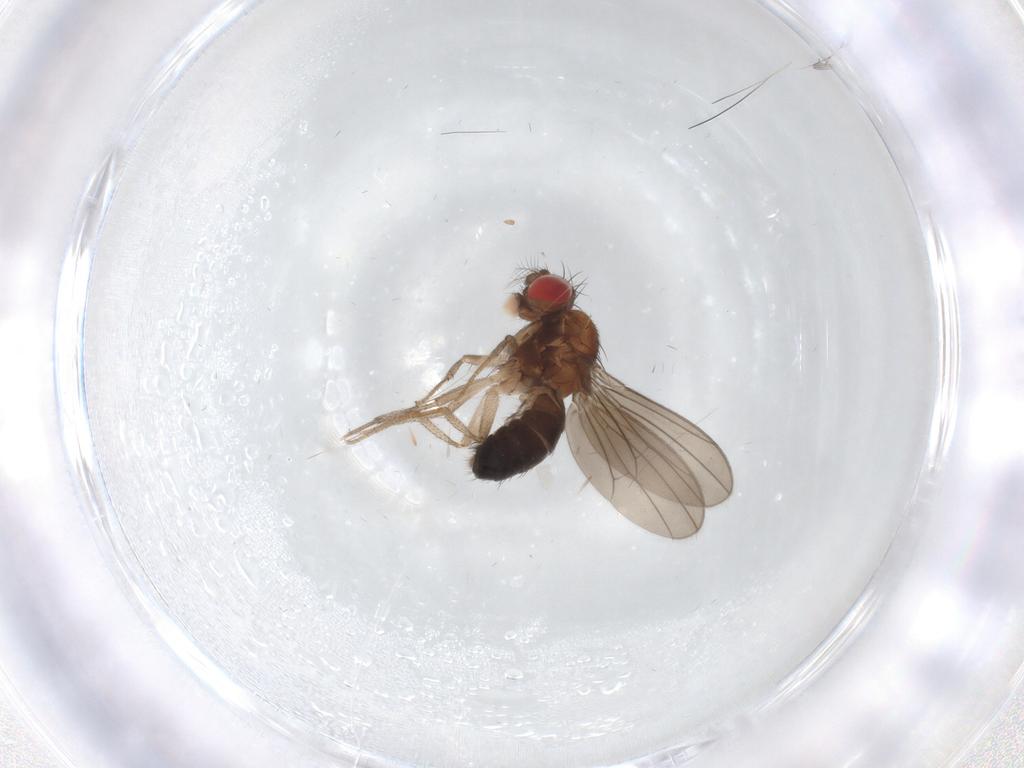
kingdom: Animalia
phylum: Arthropoda
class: Insecta
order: Diptera
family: Drosophilidae
